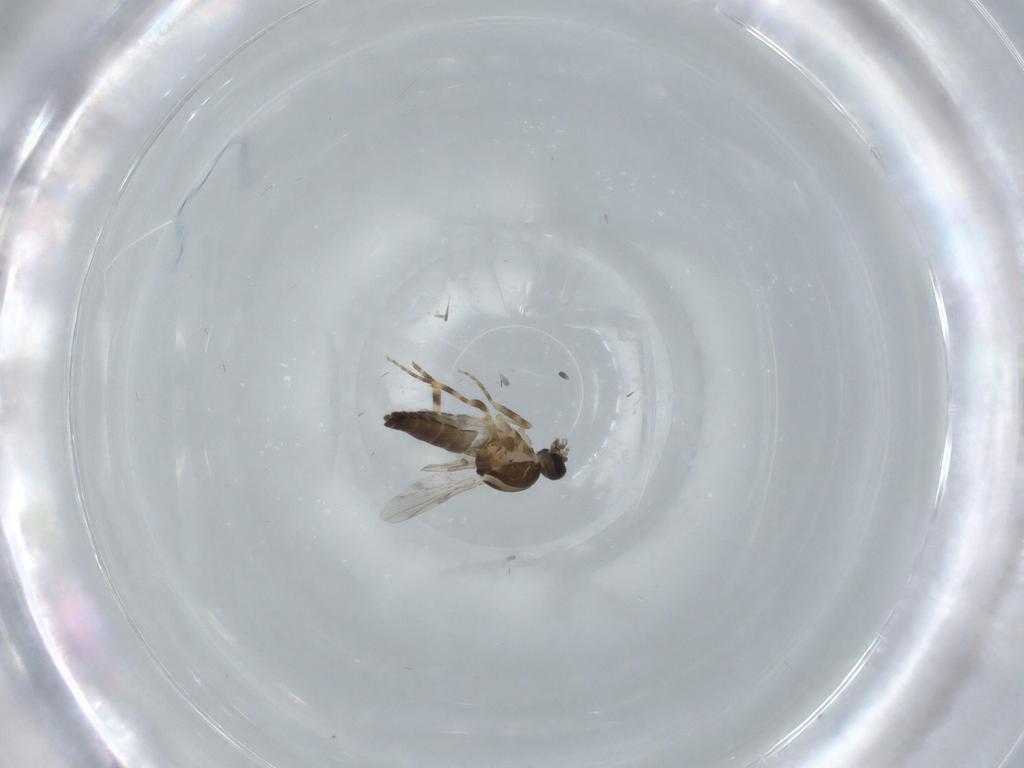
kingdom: Animalia
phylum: Arthropoda
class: Insecta
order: Diptera
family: Ceratopogonidae
